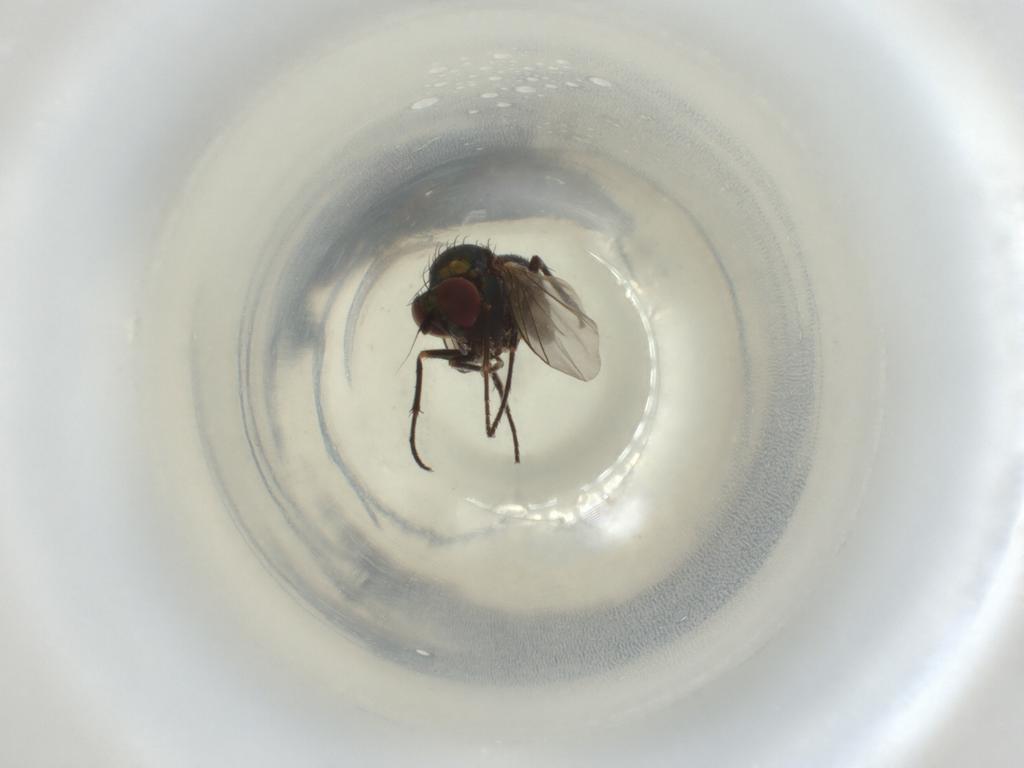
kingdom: Animalia
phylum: Arthropoda
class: Insecta
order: Diptera
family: Dolichopodidae
